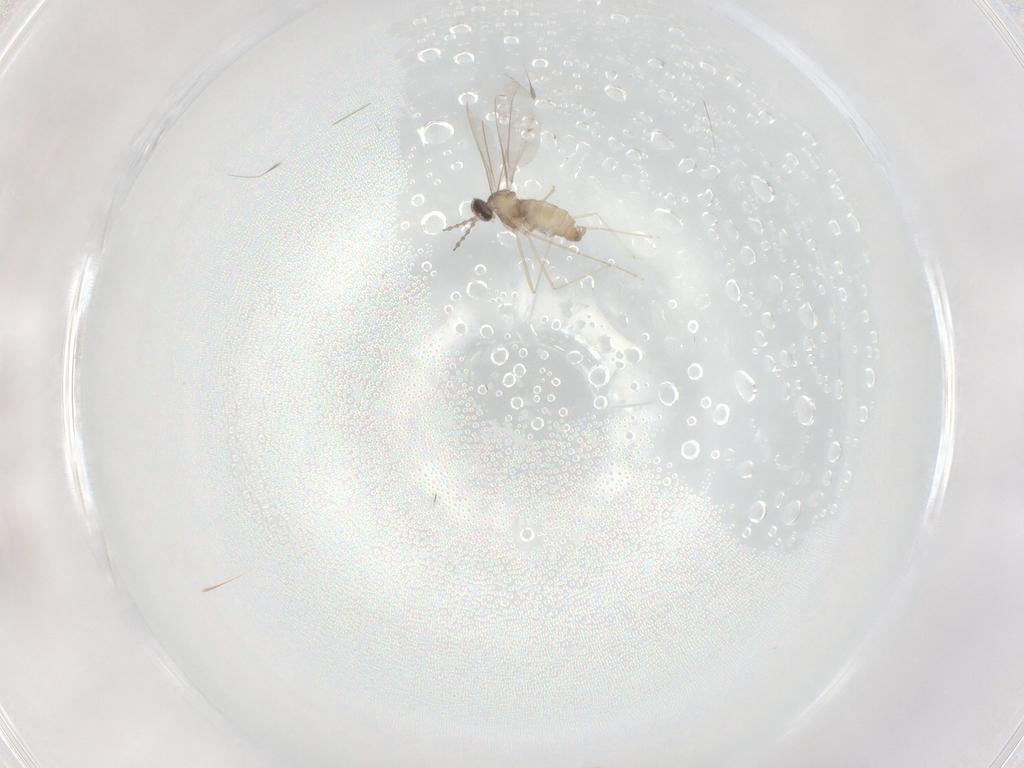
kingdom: Animalia
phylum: Arthropoda
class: Insecta
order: Diptera
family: Cecidomyiidae
